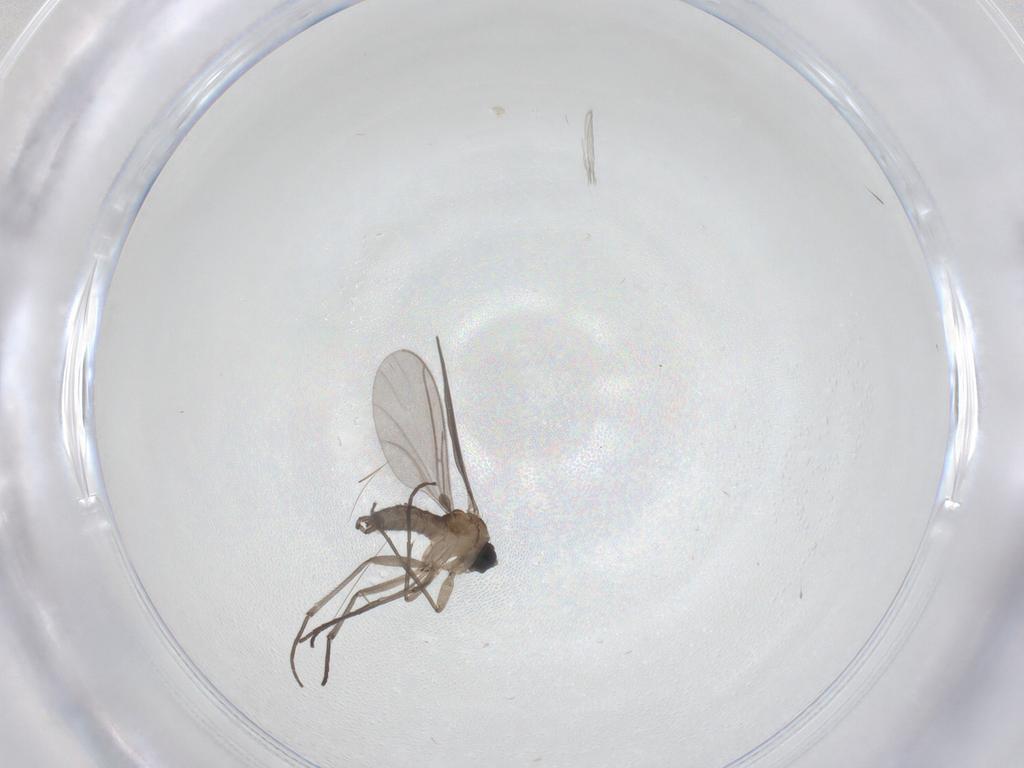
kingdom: Animalia
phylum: Arthropoda
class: Insecta
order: Diptera
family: Sciaridae
